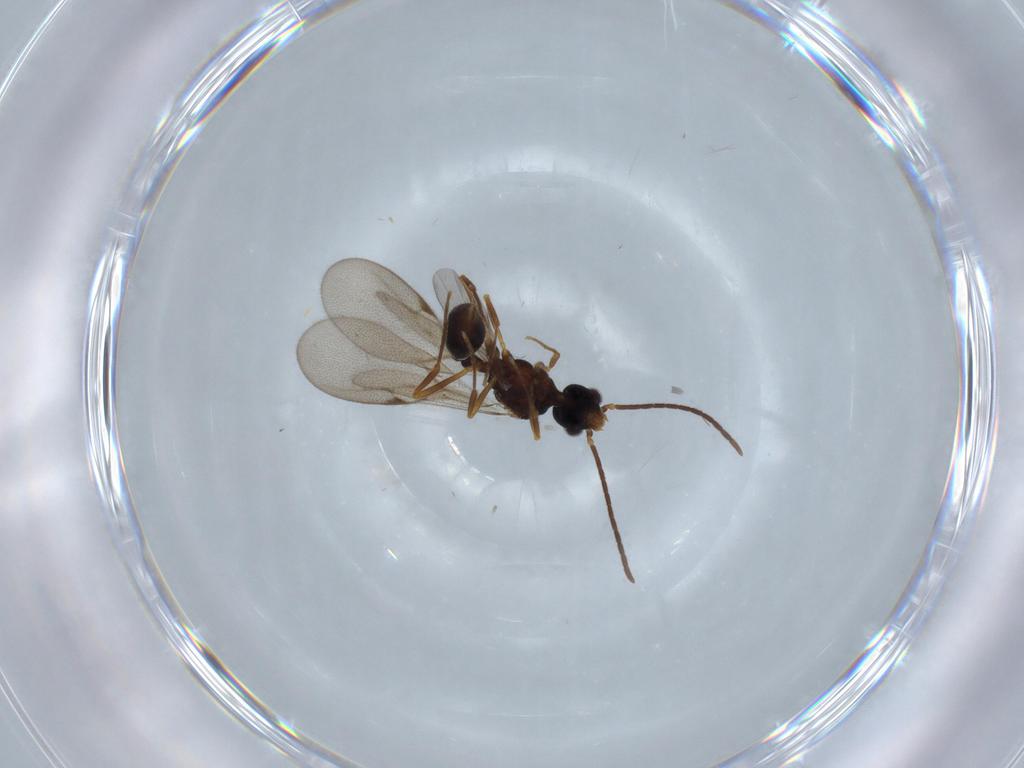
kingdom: Animalia
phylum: Arthropoda
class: Insecta
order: Hymenoptera
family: Formicidae
